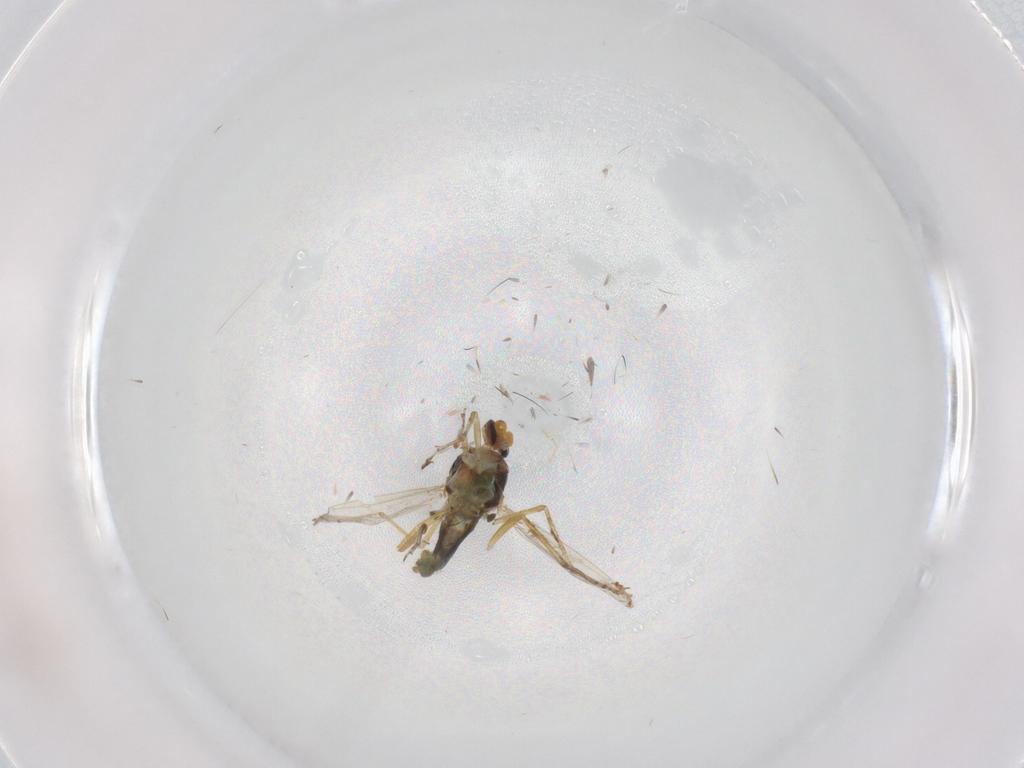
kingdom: Animalia
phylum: Arthropoda
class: Insecta
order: Diptera
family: Ceratopogonidae
